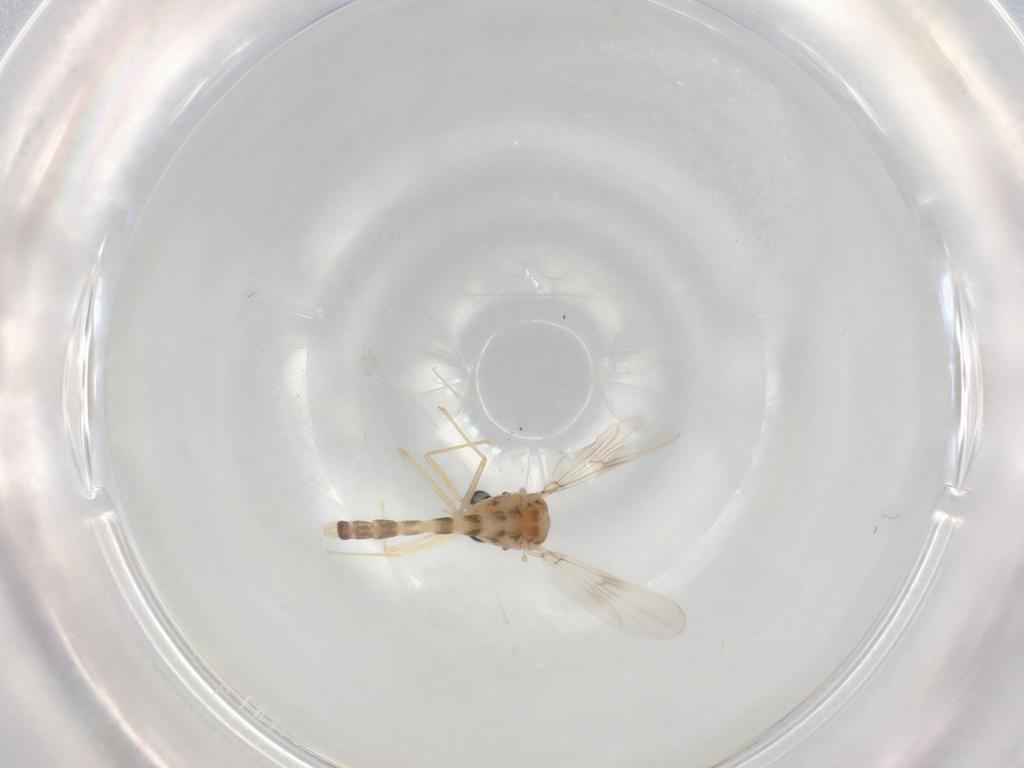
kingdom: Animalia
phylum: Arthropoda
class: Insecta
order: Diptera
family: Chironomidae
